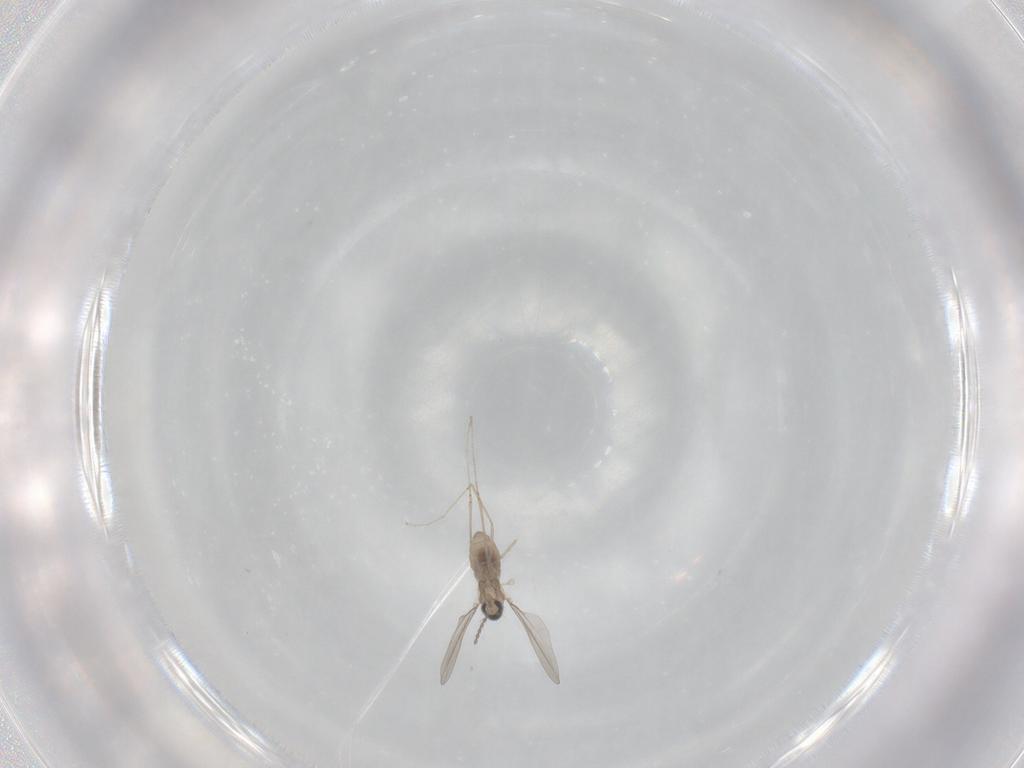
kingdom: Animalia
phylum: Arthropoda
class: Insecta
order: Diptera
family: Cecidomyiidae
